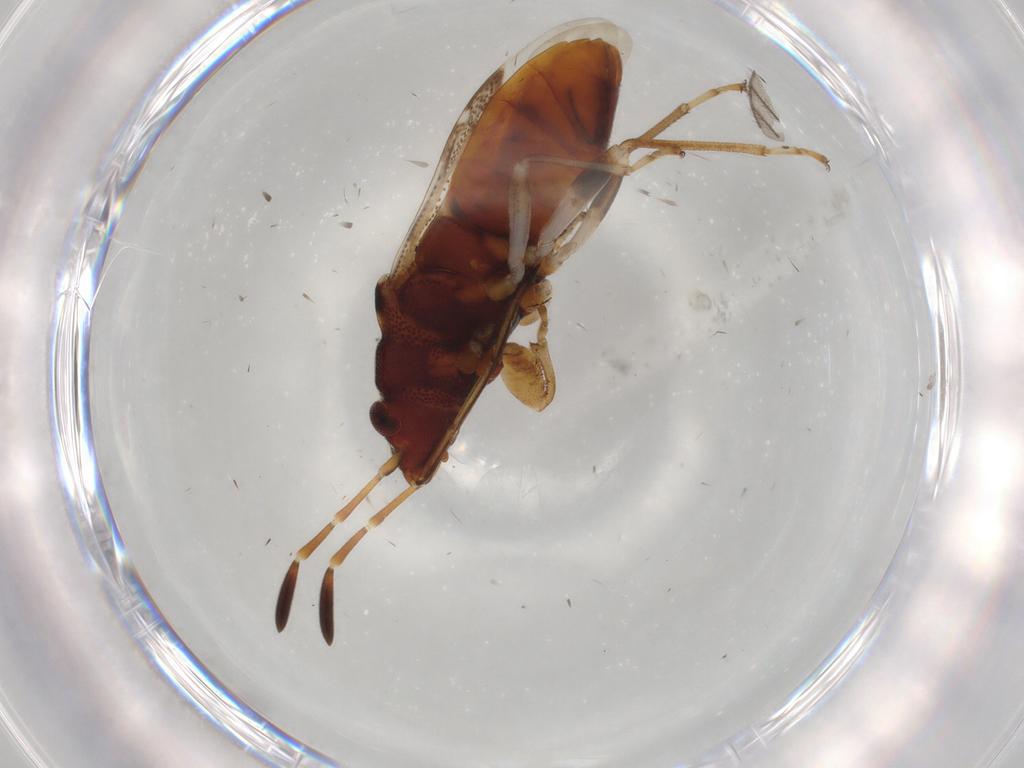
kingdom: Animalia
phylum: Arthropoda
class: Insecta
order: Hemiptera
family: Rhyparochromidae
